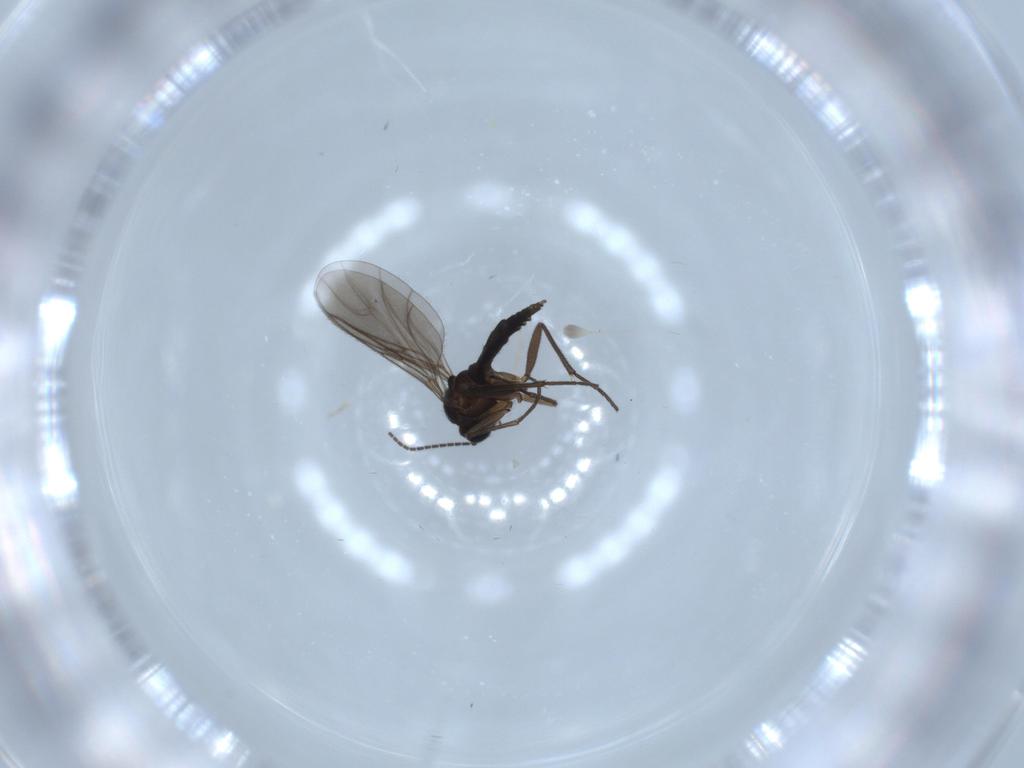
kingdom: Animalia
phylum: Arthropoda
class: Insecta
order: Diptera
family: Sciaridae
